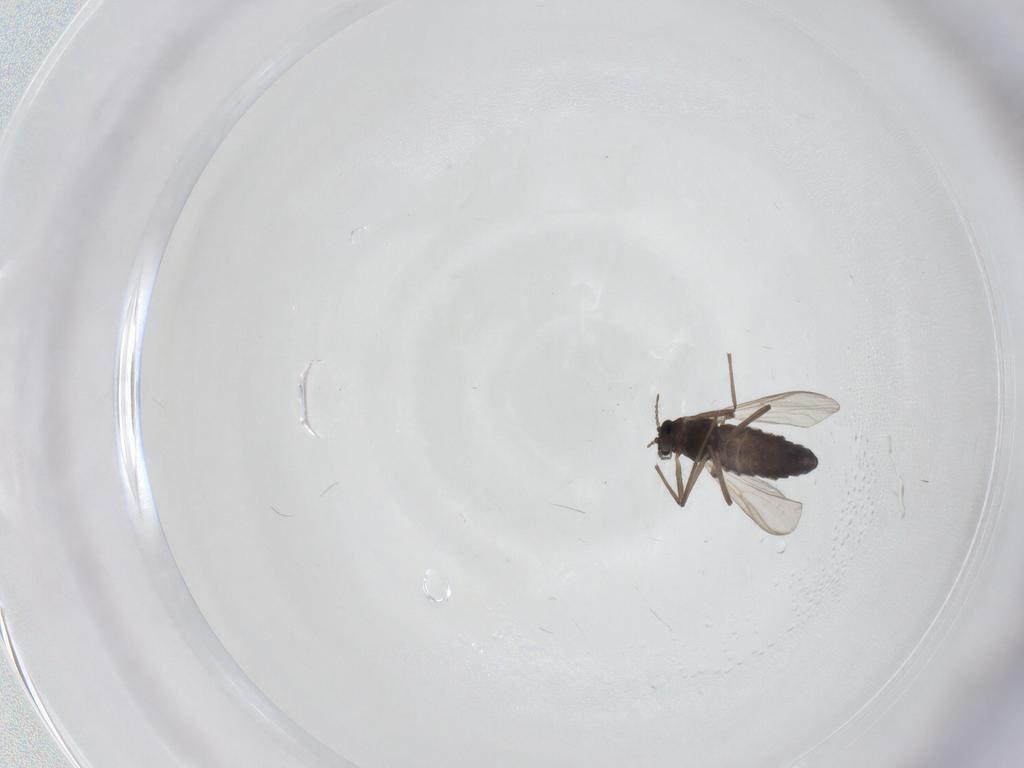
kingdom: Animalia
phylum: Arthropoda
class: Insecta
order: Diptera
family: Chironomidae
